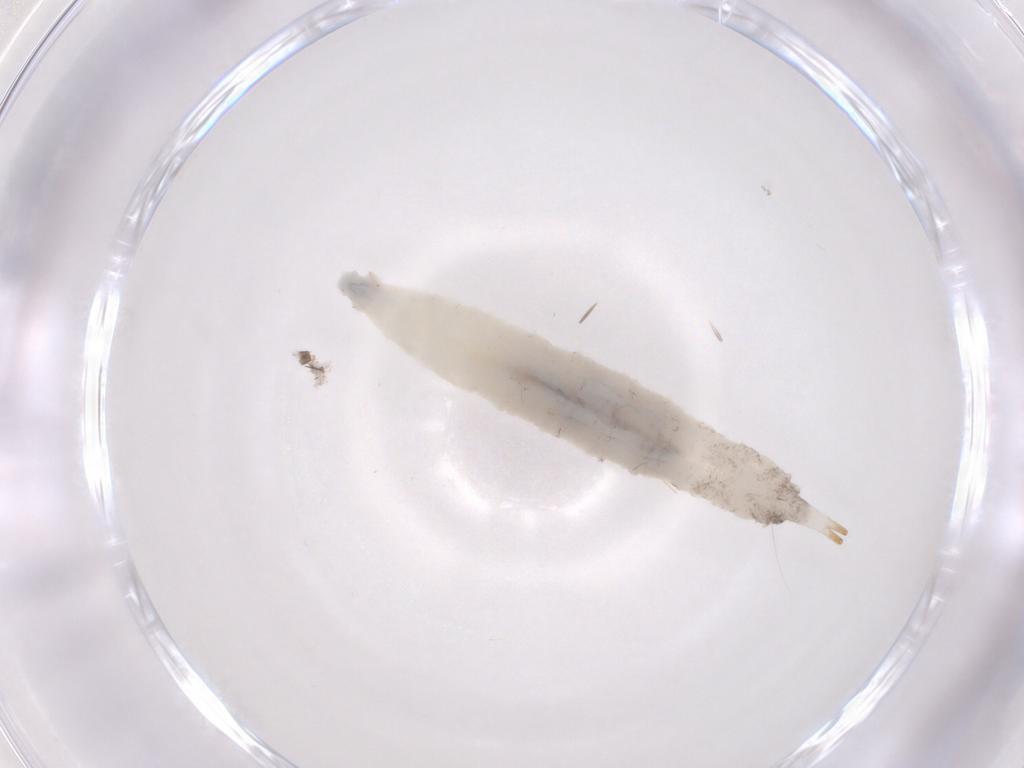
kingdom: Animalia
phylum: Arthropoda
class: Insecta
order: Diptera
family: Drosophilidae
